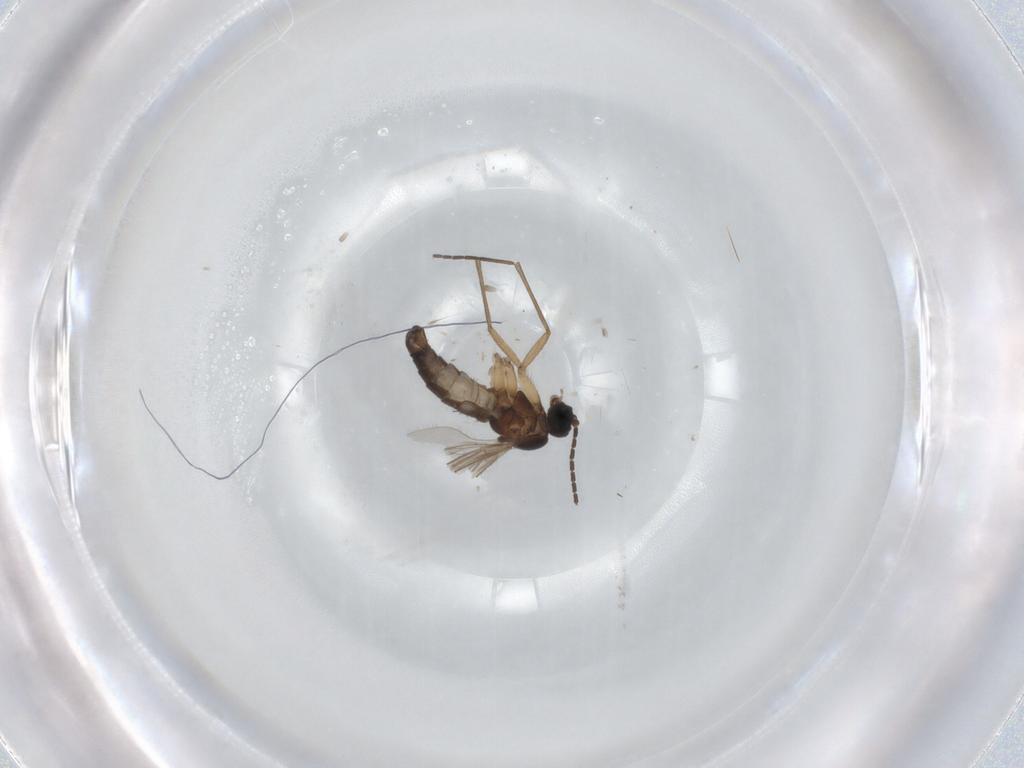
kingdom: Animalia
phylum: Arthropoda
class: Insecta
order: Diptera
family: Sciaridae
